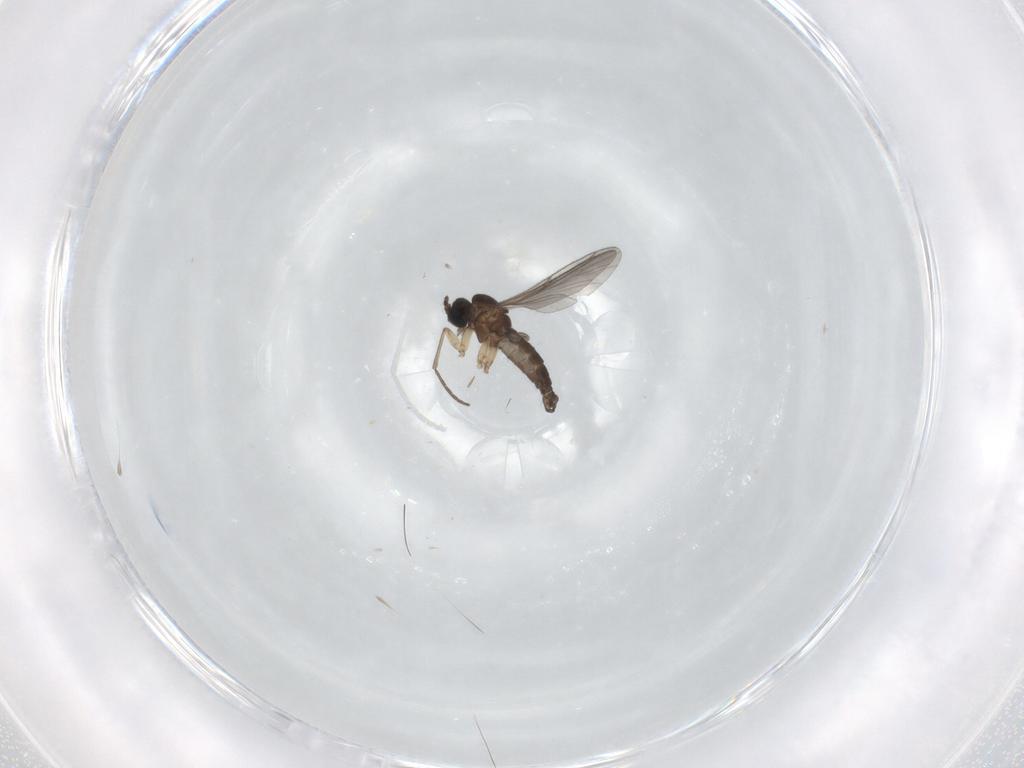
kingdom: Animalia
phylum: Arthropoda
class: Insecta
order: Diptera
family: Sciaridae
